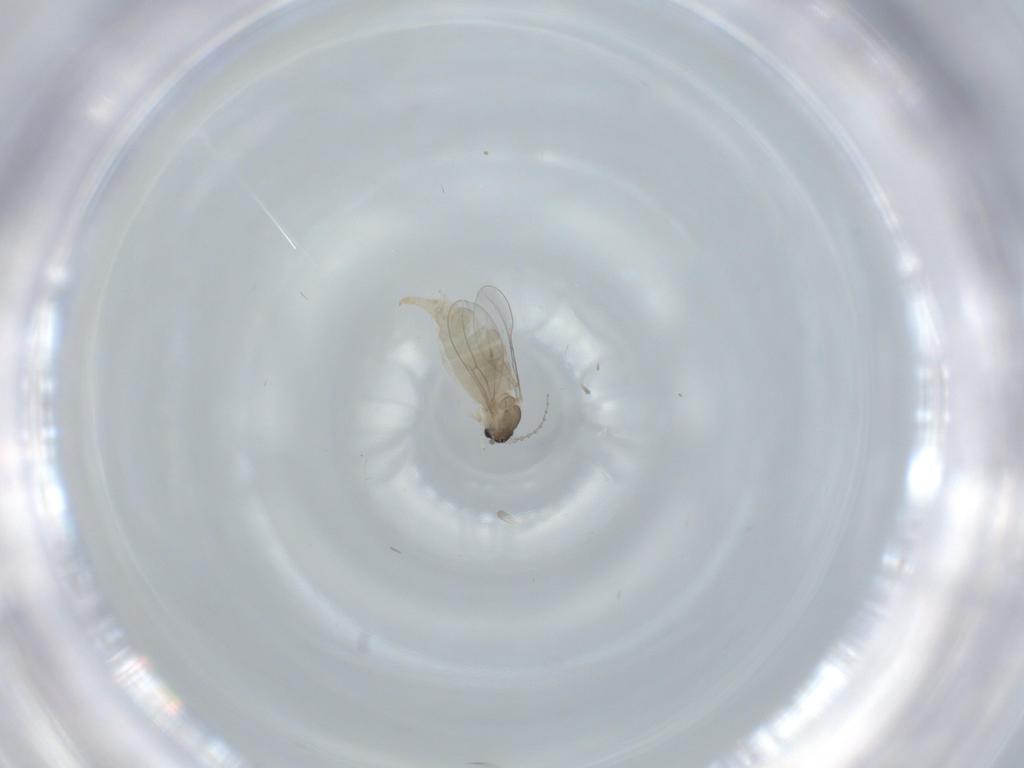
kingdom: Animalia
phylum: Arthropoda
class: Insecta
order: Diptera
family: Cecidomyiidae
